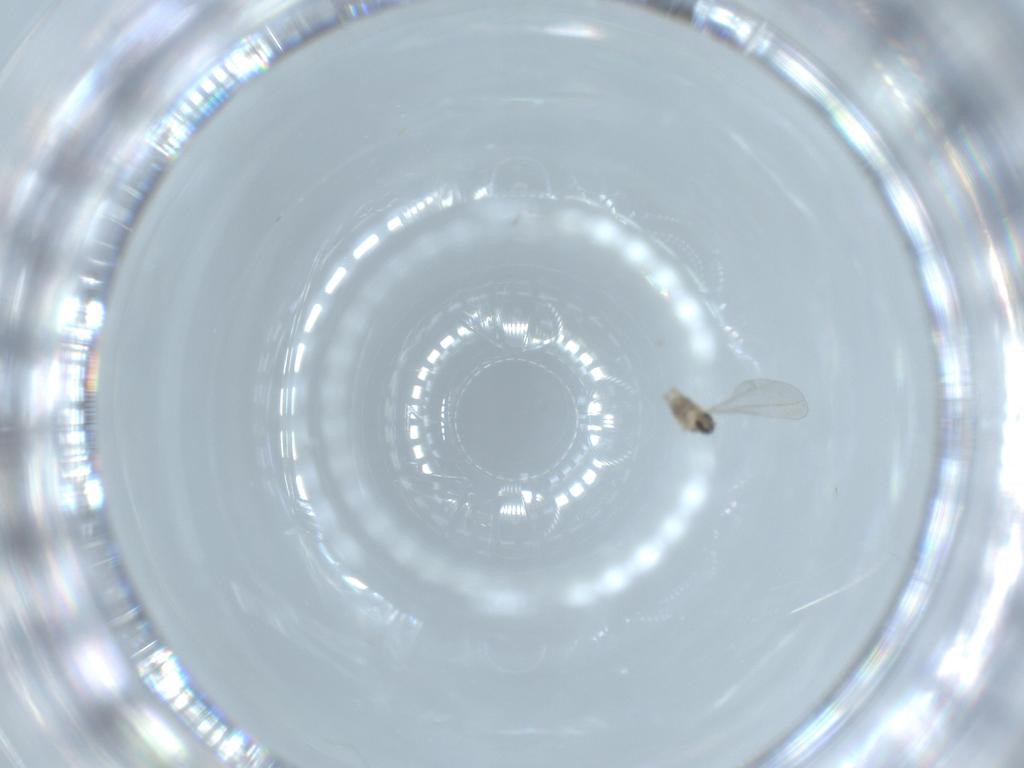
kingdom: Animalia
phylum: Arthropoda
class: Insecta
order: Diptera
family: Cecidomyiidae
